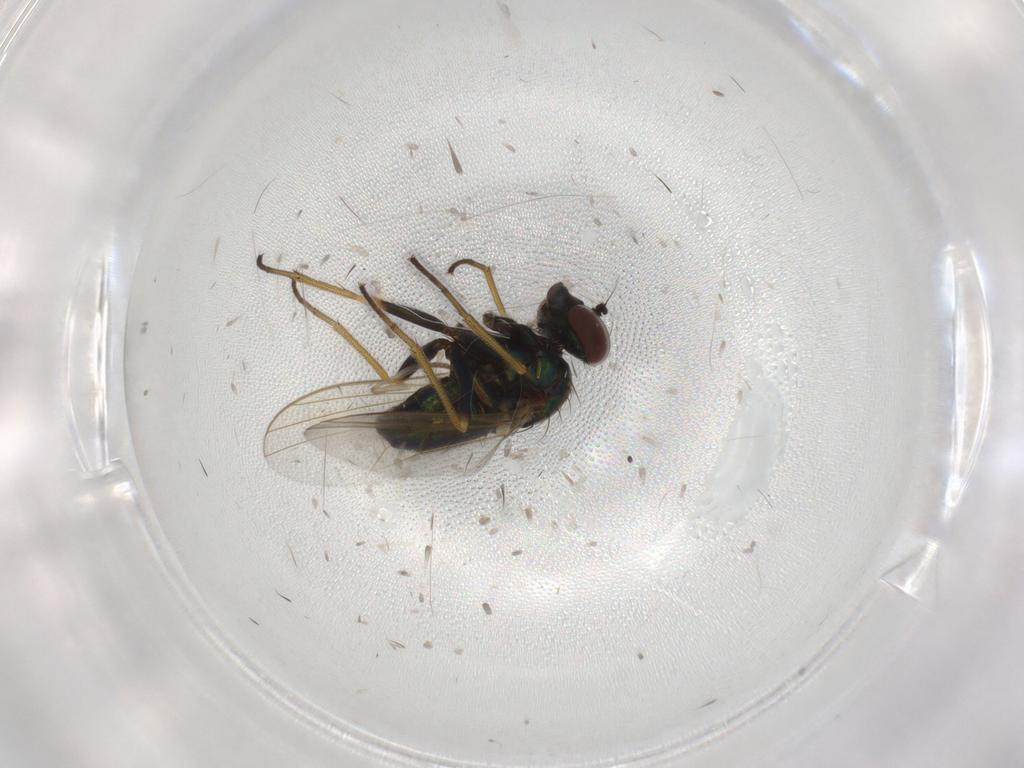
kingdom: Animalia
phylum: Arthropoda
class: Insecta
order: Diptera
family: Dolichopodidae
